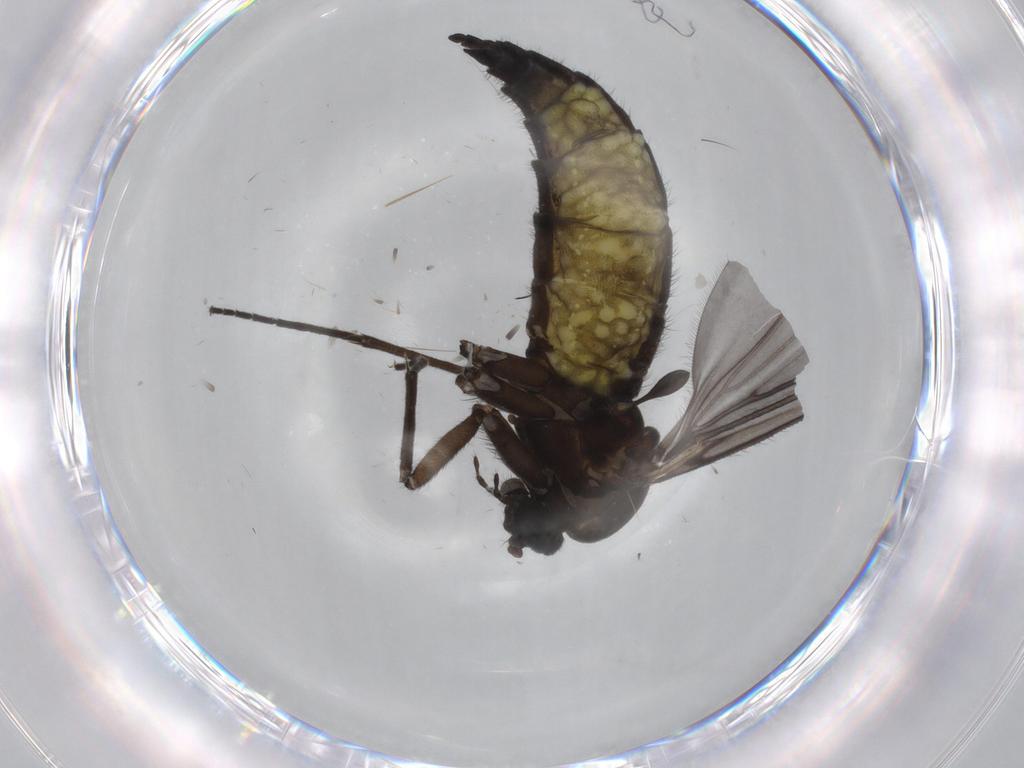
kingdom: Animalia
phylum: Arthropoda
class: Insecta
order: Diptera
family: Sciaridae
